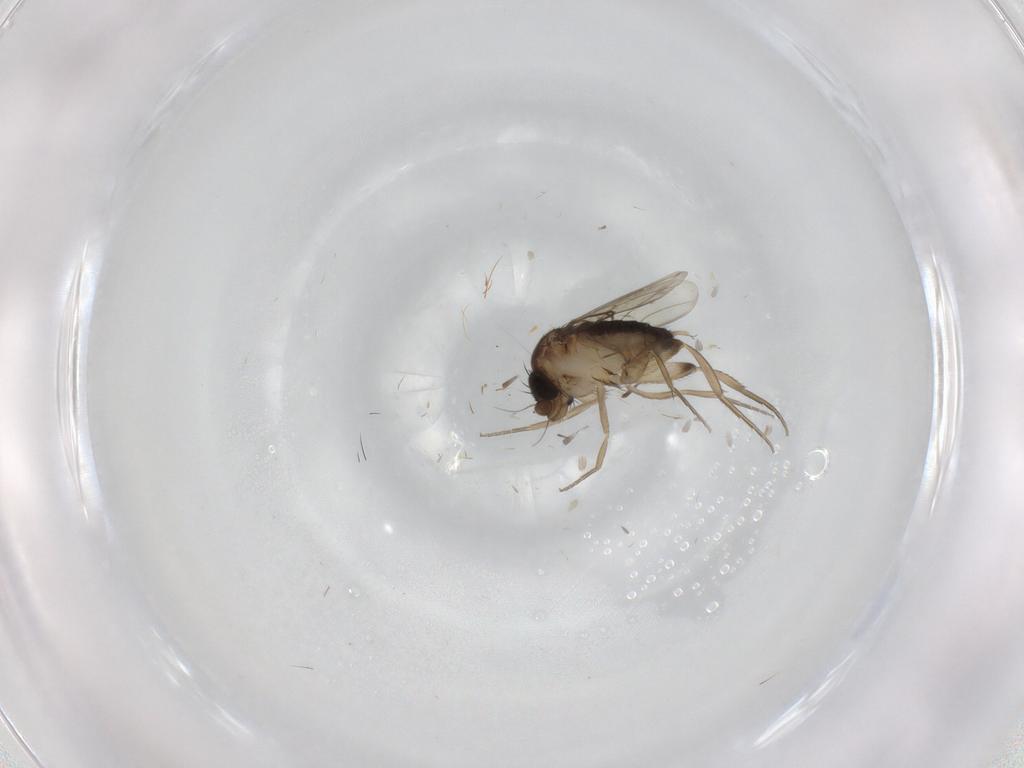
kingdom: Animalia
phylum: Arthropoda
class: Insecta
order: Diptera
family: Phoridae
